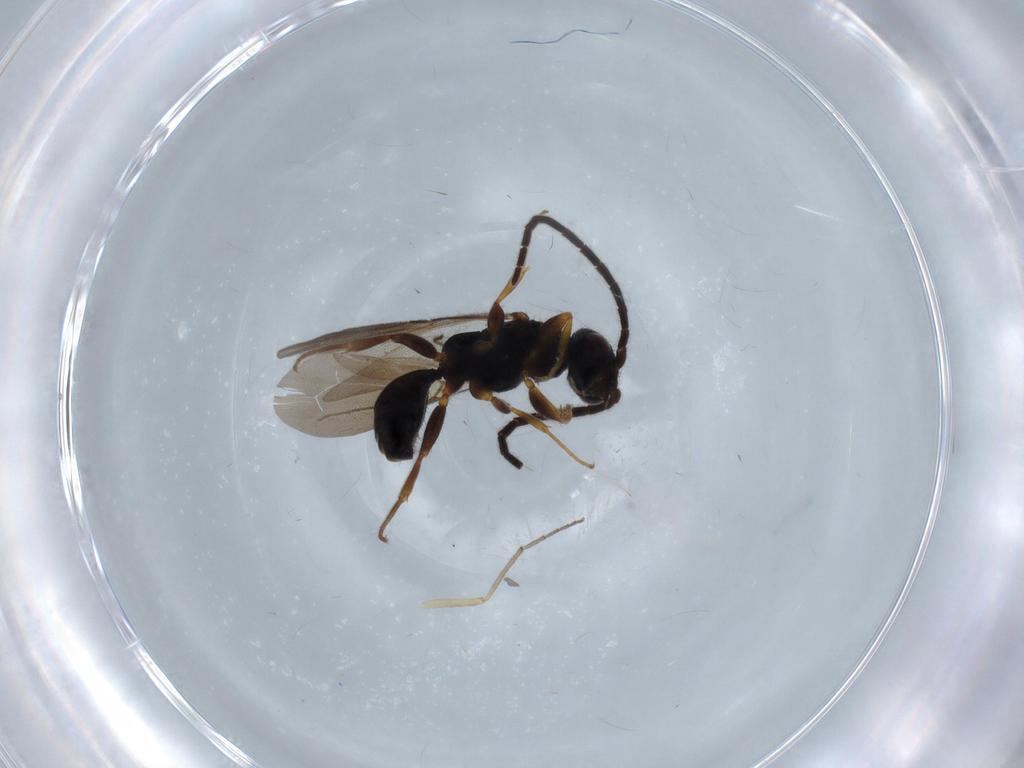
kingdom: Animalia
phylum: Arthropoda
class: Insecta
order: Hymenoptera
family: Bethylidae
